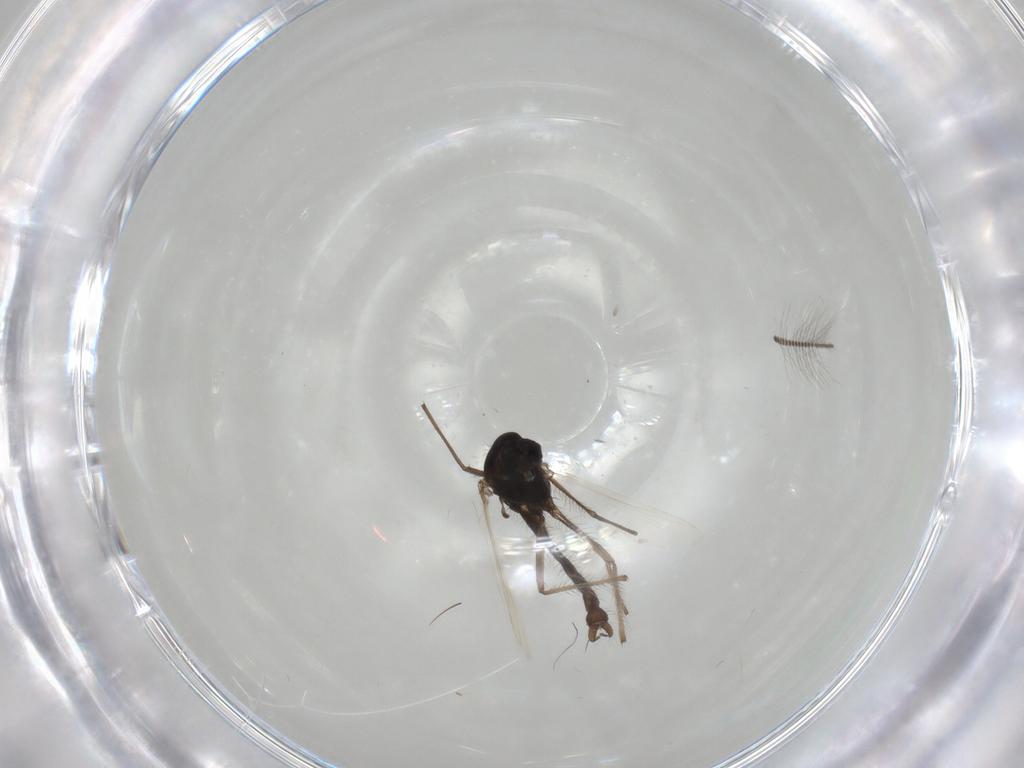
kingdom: Animalia
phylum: Arthropoda
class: Insecta
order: Diptera
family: Chironomidae
